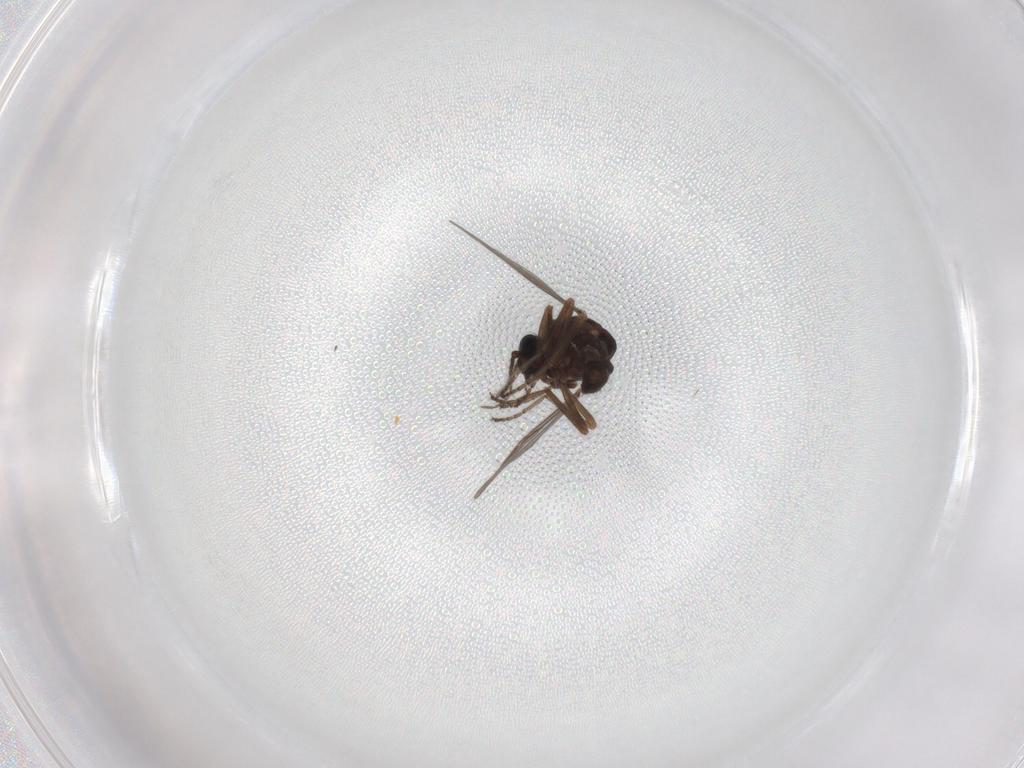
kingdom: Animalia
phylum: Arthropoda
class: Insecta
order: Diptera
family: Ceratopogonidae
